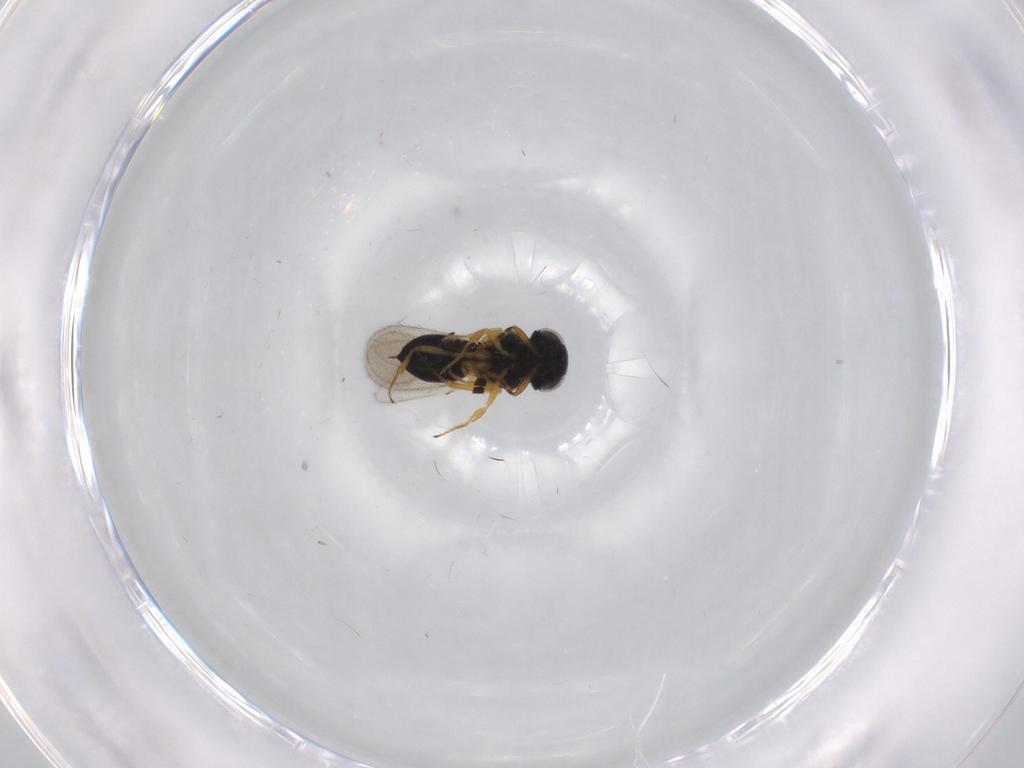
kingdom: Animalia
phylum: Arthropoda
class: Insecta
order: Hymenoptera
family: Scelionidae
